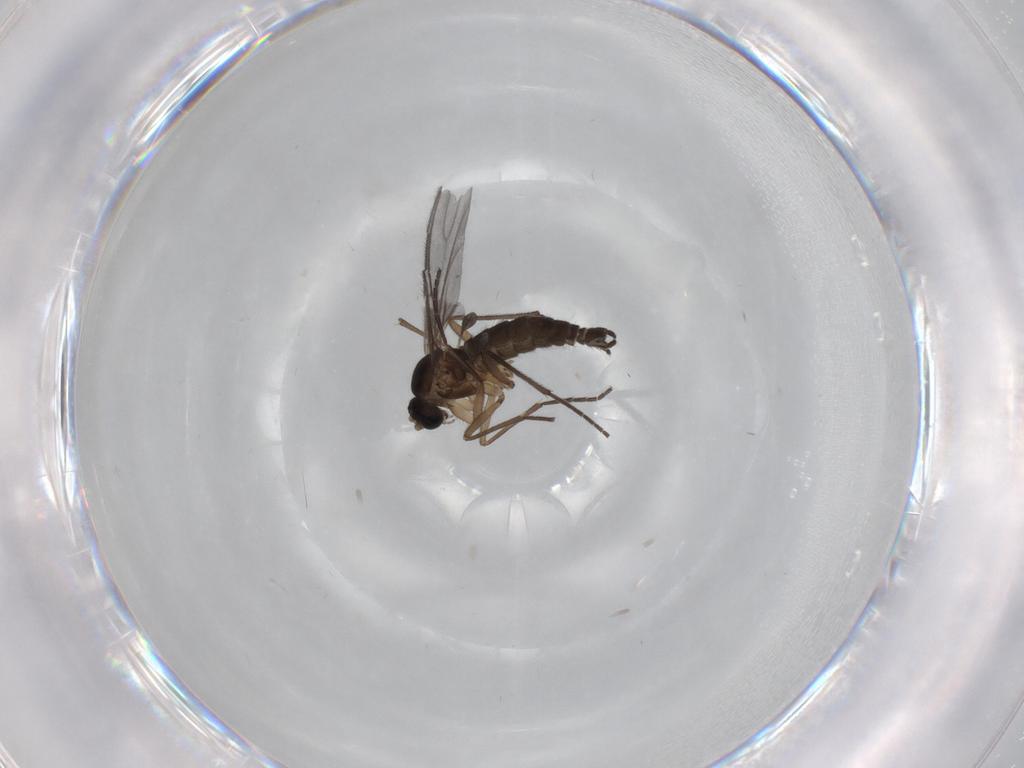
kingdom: Animalia
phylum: Arthropoda
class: Insecta
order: Diptera
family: Sciaridae
